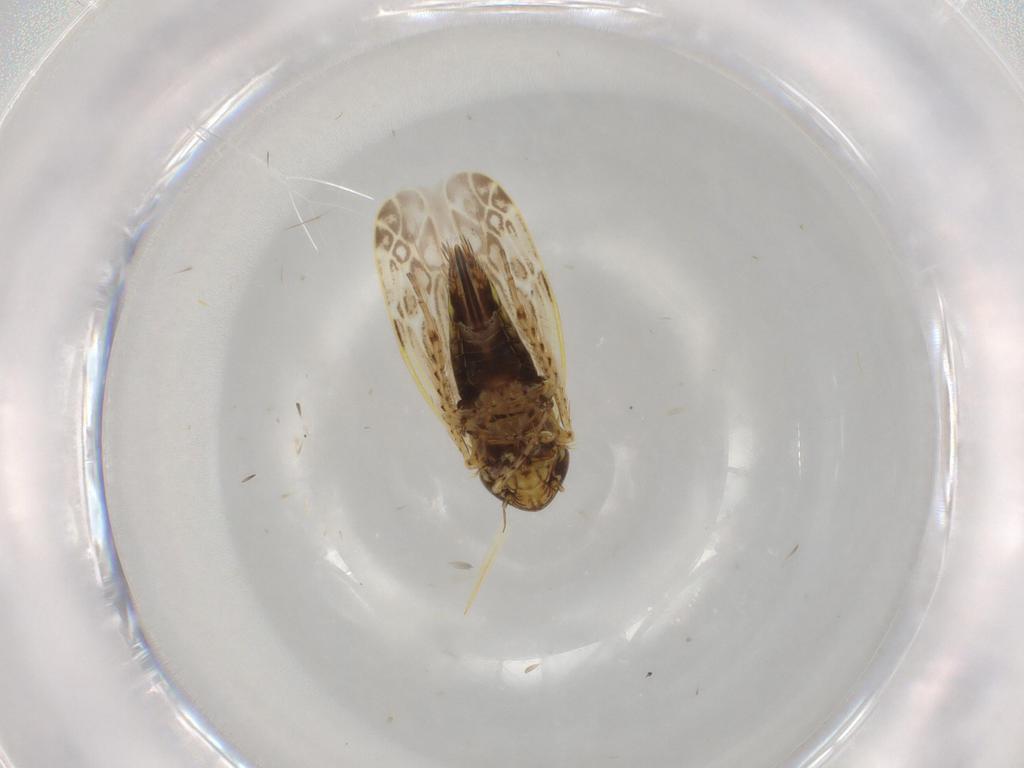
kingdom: Animalia
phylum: Arthropoda
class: Insecta
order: Hemiptera
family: Cicadellidae
